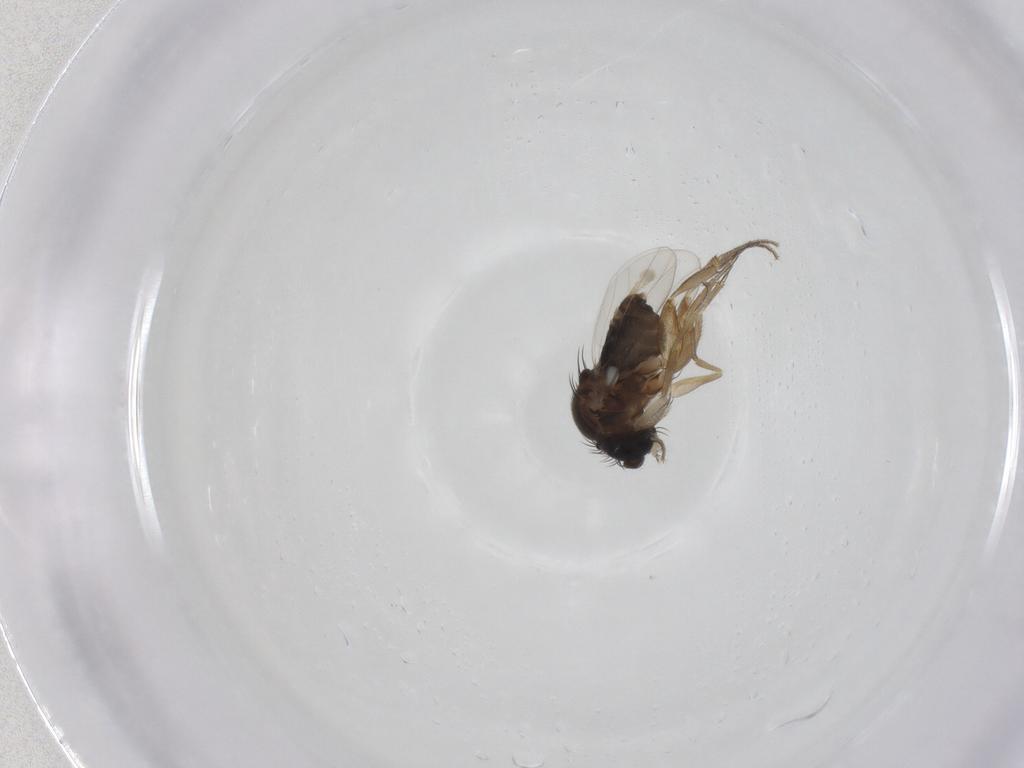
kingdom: Animalia
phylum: Arthropoda
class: Insecta
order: Diptera
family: Phoridae
